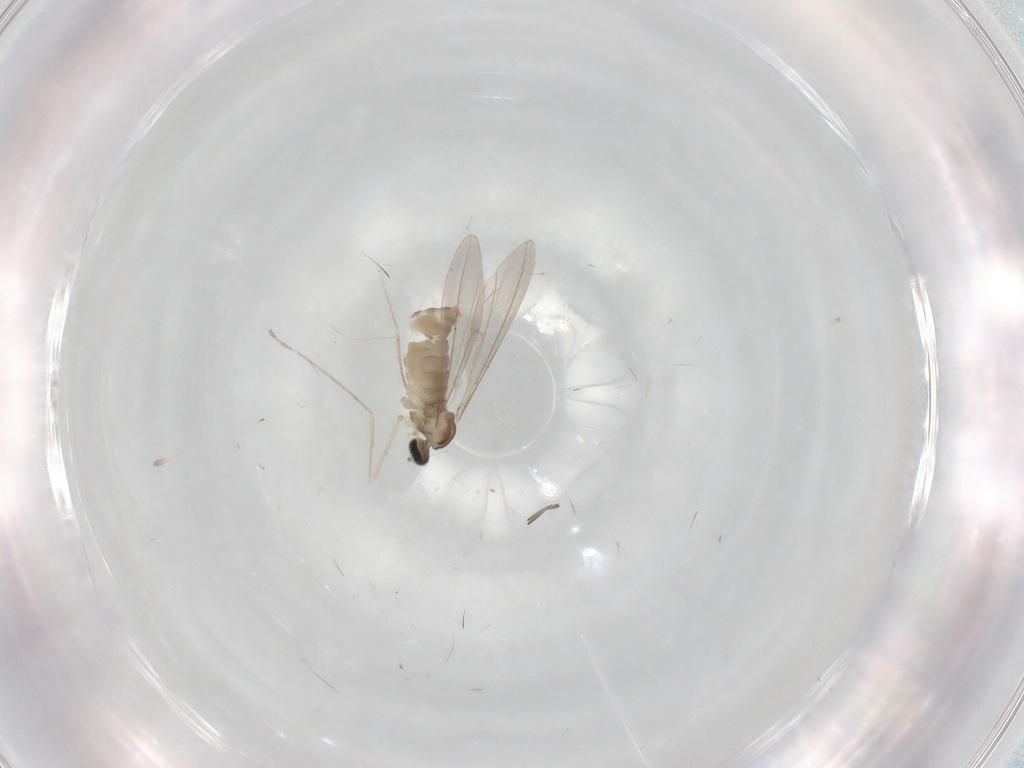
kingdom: Animalia
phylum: Arthropoda
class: Insecta
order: Diptera
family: Cecidomyiidae
